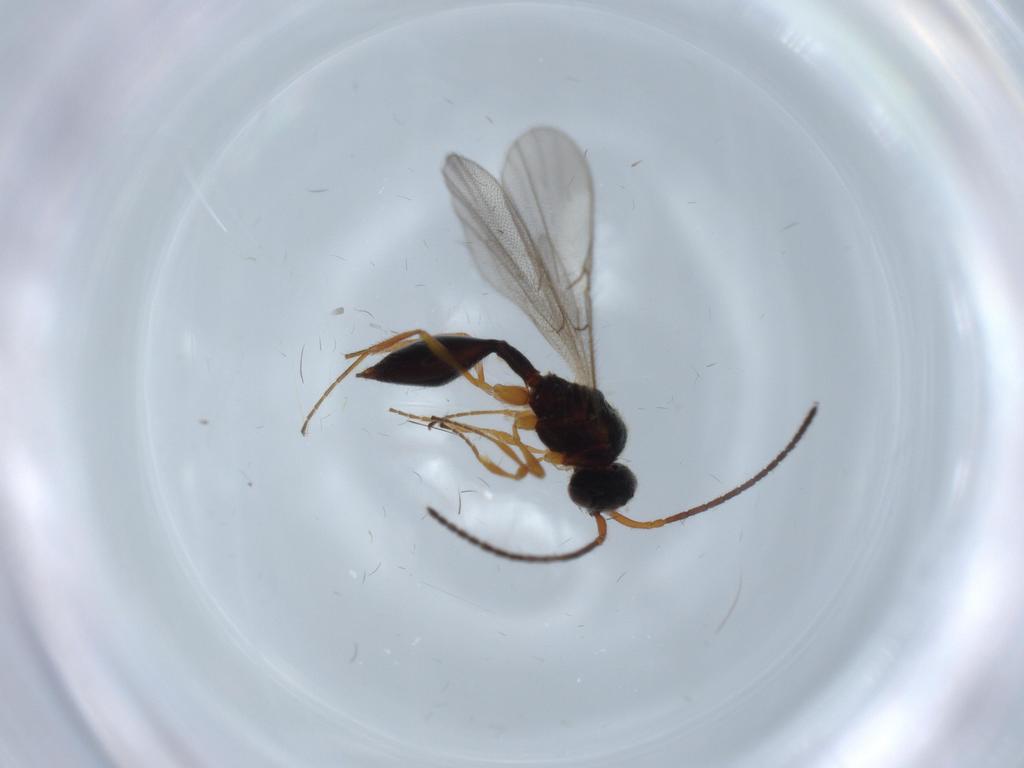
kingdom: Animalia
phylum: Arthropoda
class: Insecta
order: Hymenoptera
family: Diapriidae
